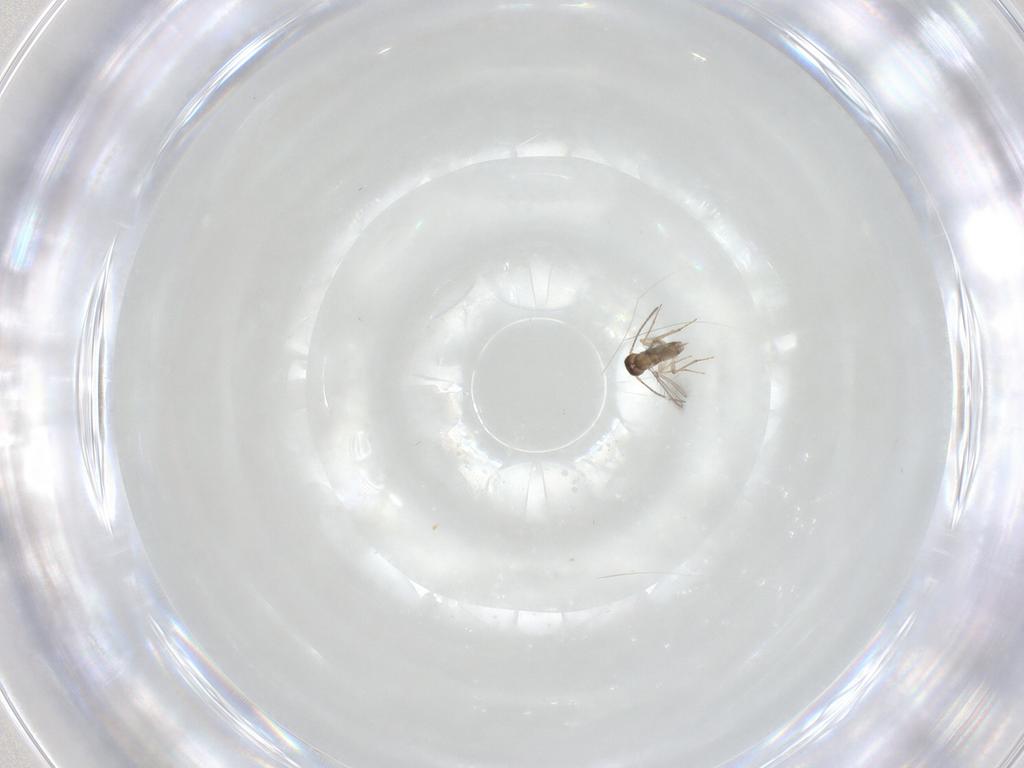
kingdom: Animalia
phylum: Arthropoda
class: Insecta
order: Hymenoptera
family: Mymaridae
